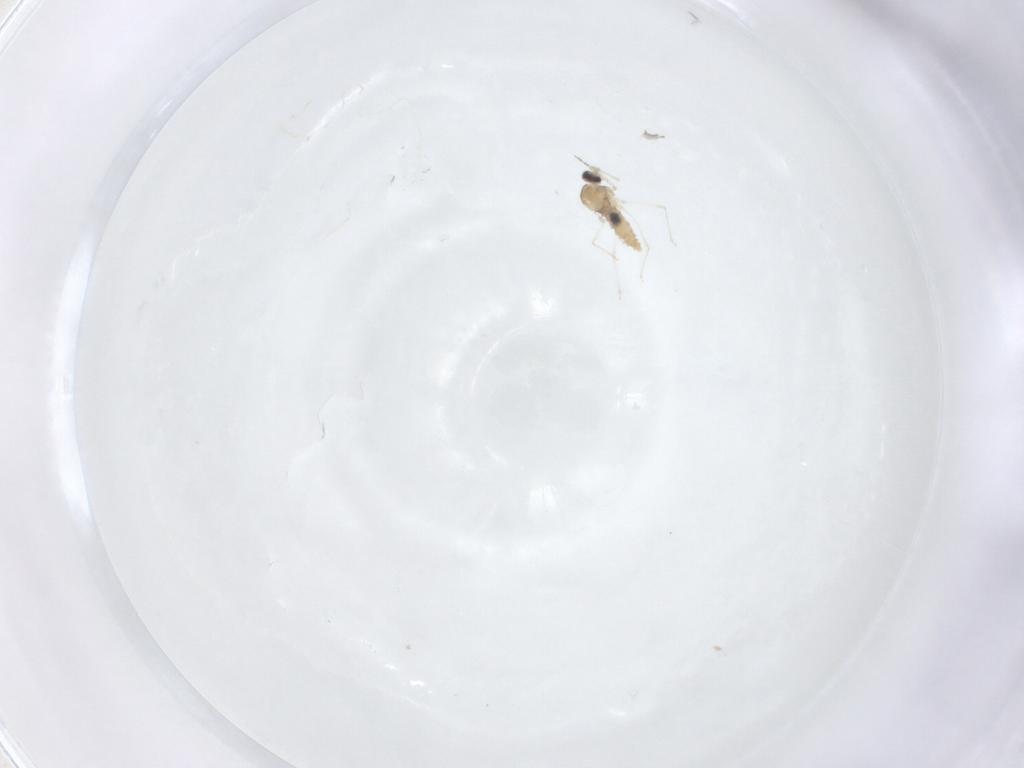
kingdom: Animalia
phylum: Arthropoda
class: Insecta
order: Diptera
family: Cecidomyiidae
